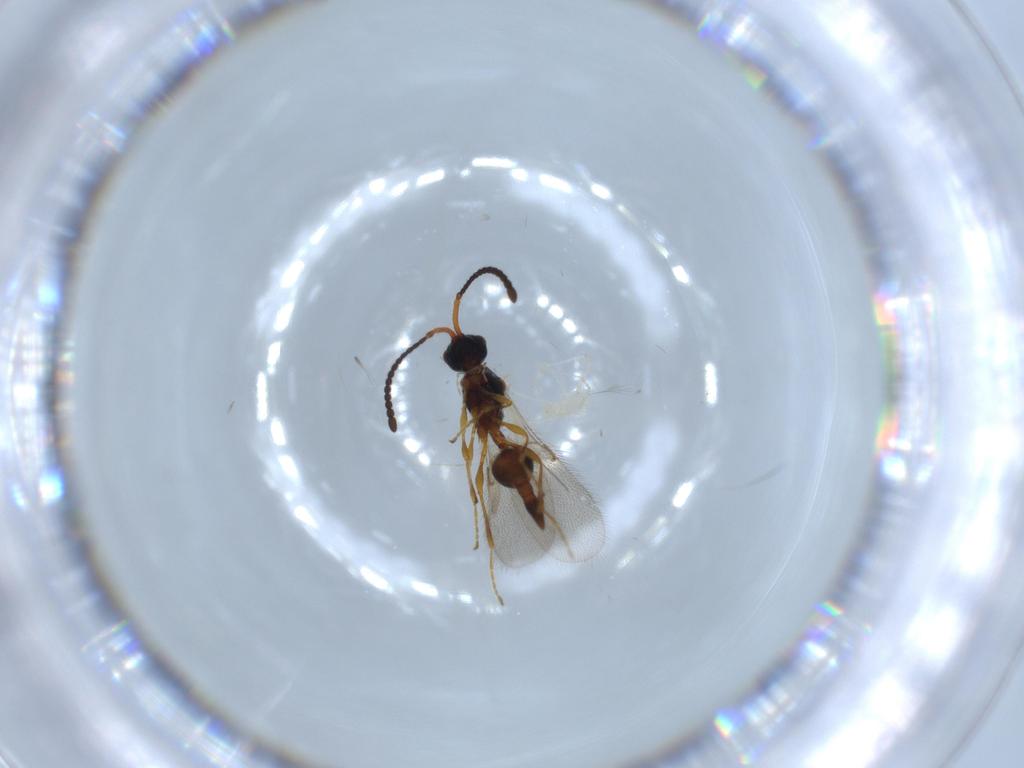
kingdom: Animalia
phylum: Arthropoda
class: Insecta
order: Hymenoptera
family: Diapriidae
